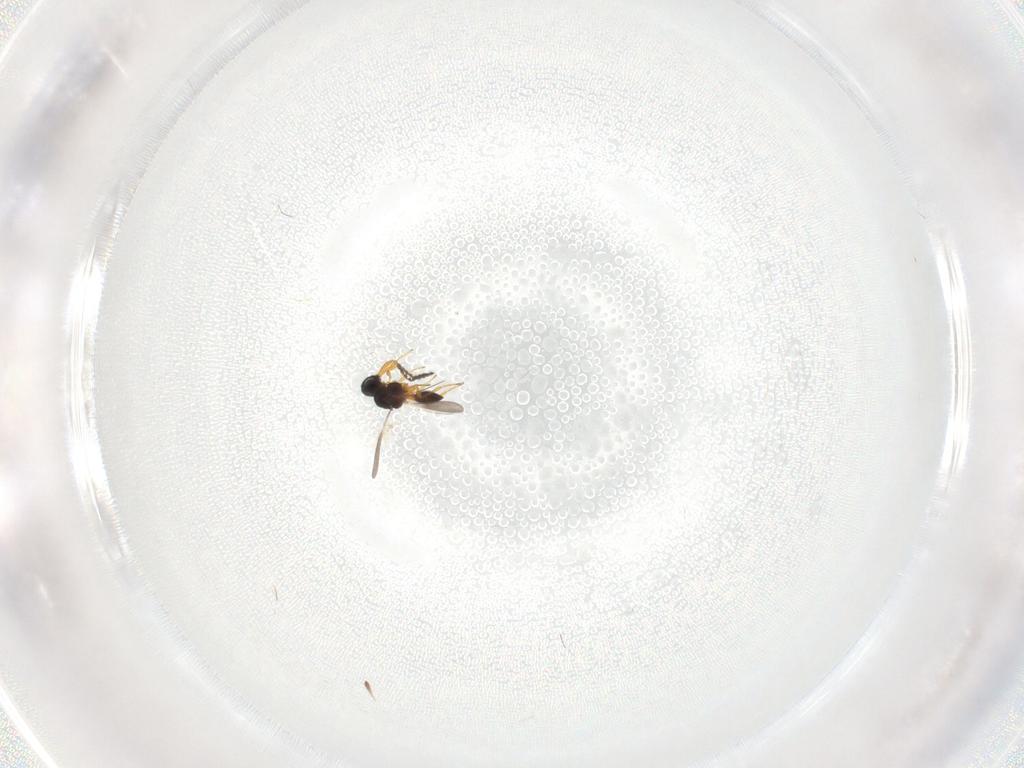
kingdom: Animalia
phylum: Arthropoda
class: Insecta
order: Hymenoptera
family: Platygastridae
